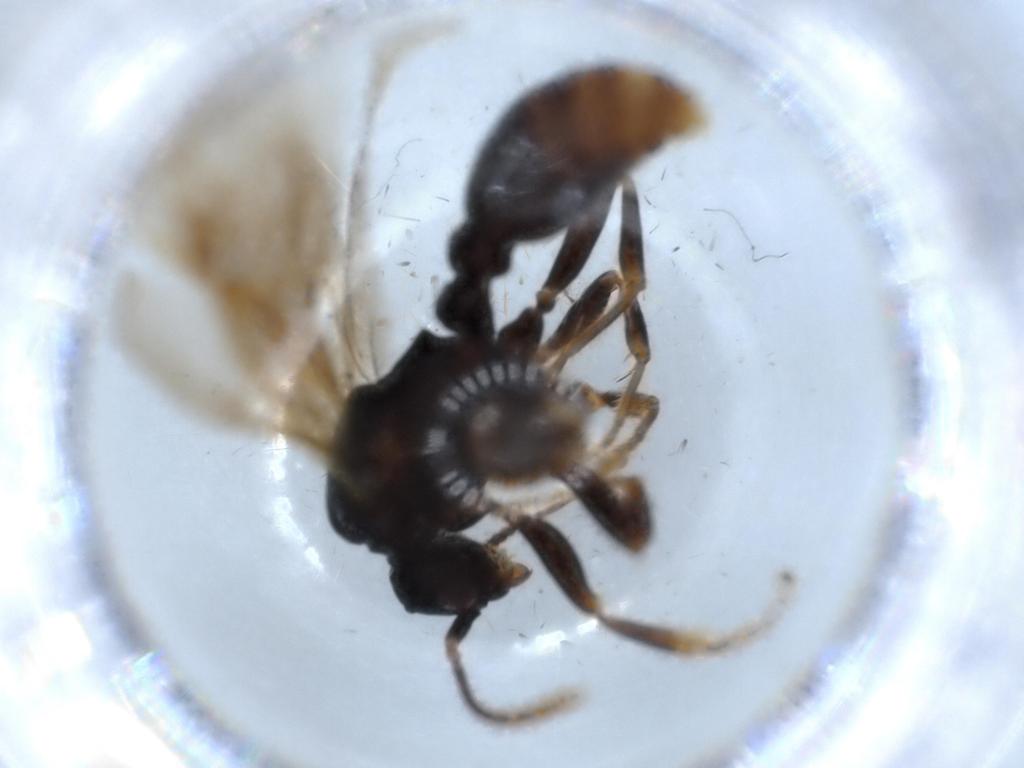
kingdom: Animalia
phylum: Arthropoda
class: Insecta
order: Hymenoptera
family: Formicidae
